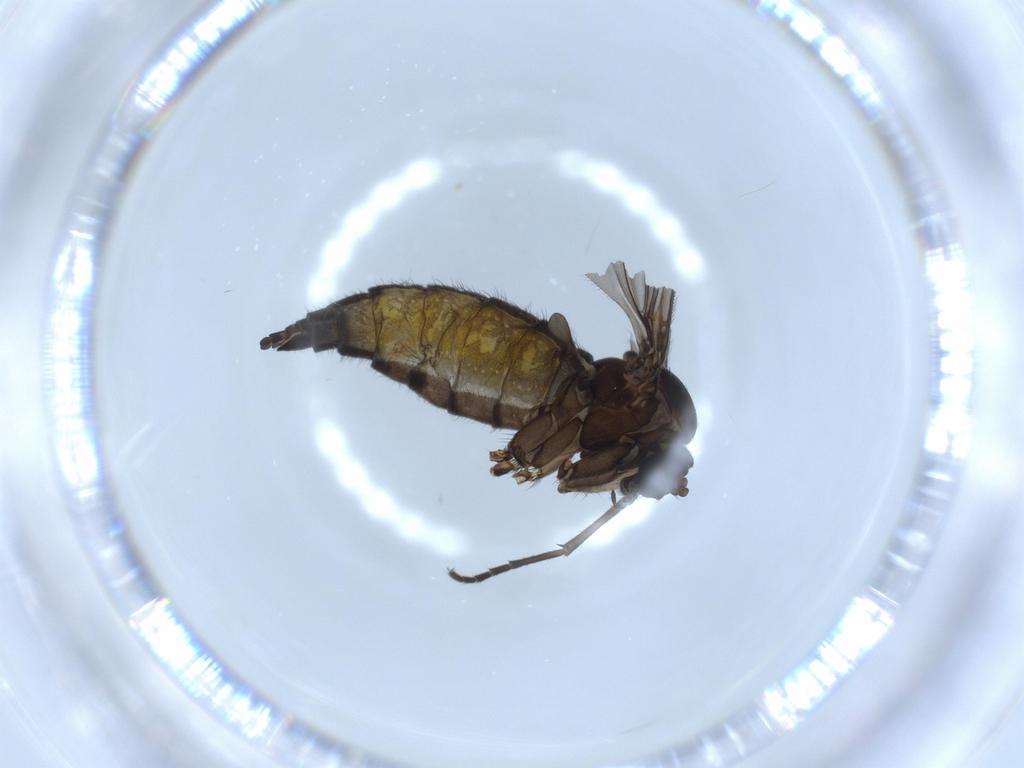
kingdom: Animalia
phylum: Arthropoda
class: Insecta
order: Diptera
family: Sciaridae
